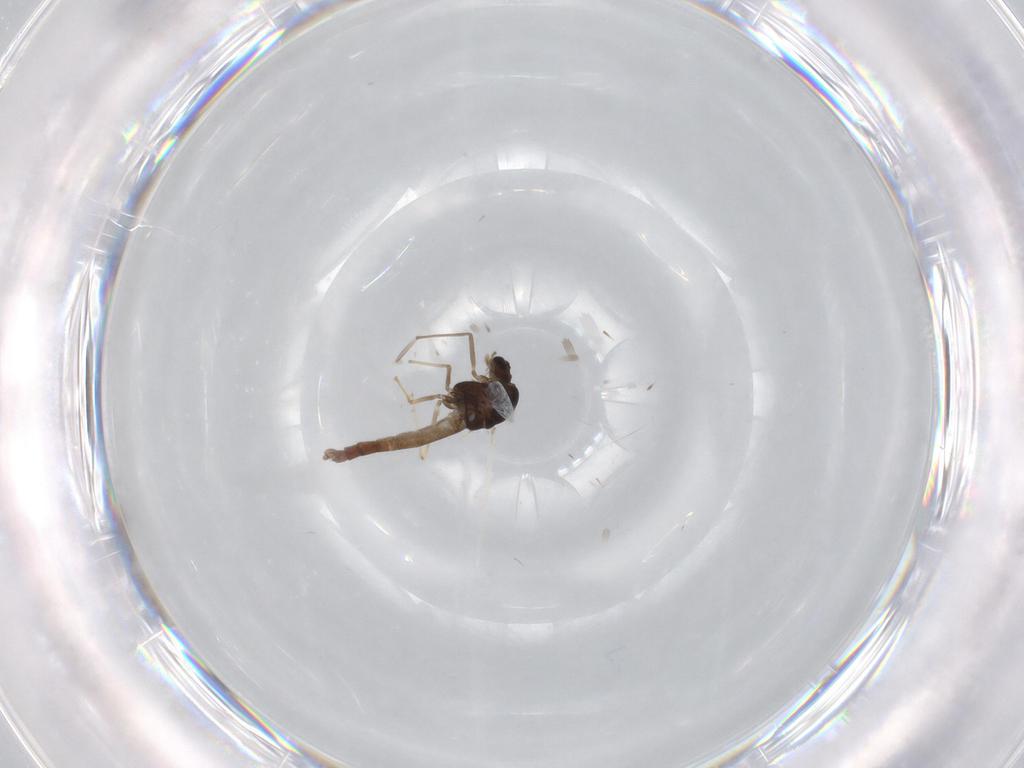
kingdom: Animalia
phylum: Arthropoda
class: Insecta
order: Diptera
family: Chironomidae
